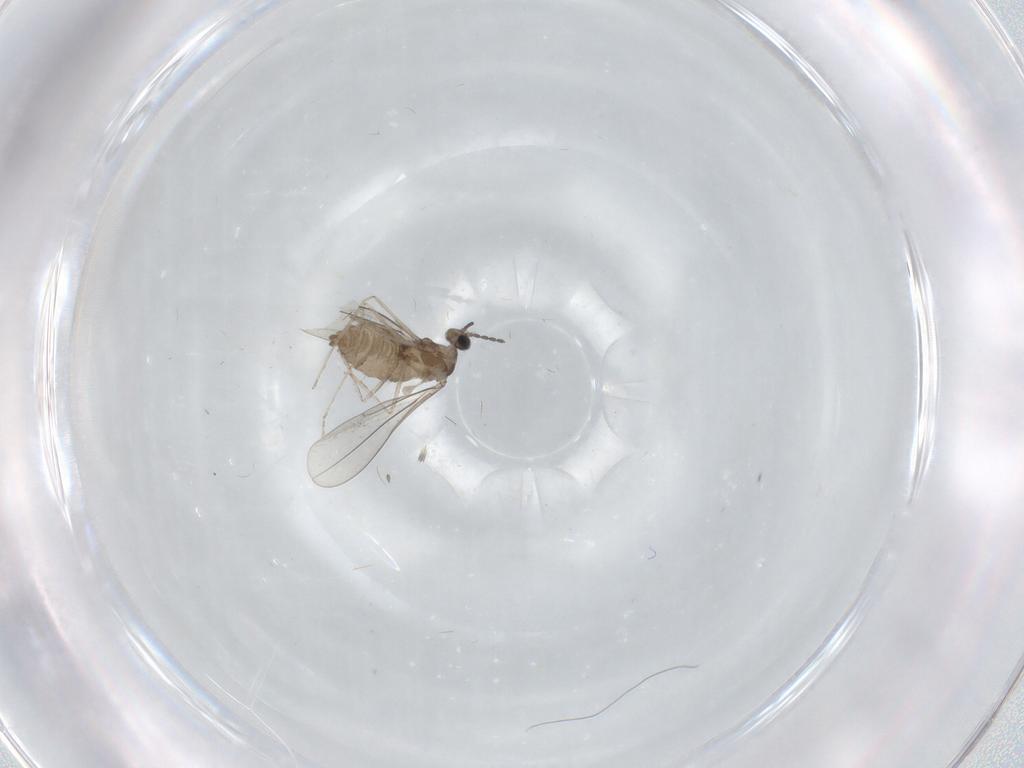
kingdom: Animalia
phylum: Arthropoda
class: Insecta
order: Diptera
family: Cecidomyiidae
